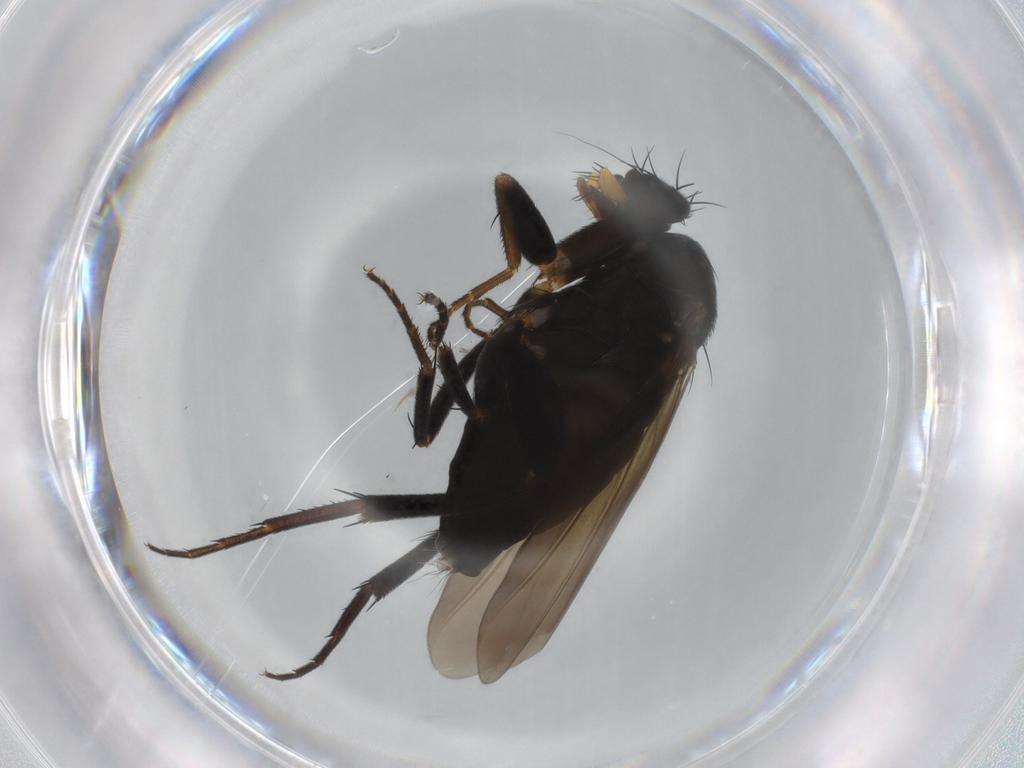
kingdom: Animalia
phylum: Arthropoda
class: Insecta
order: Diptera
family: Phoridae
